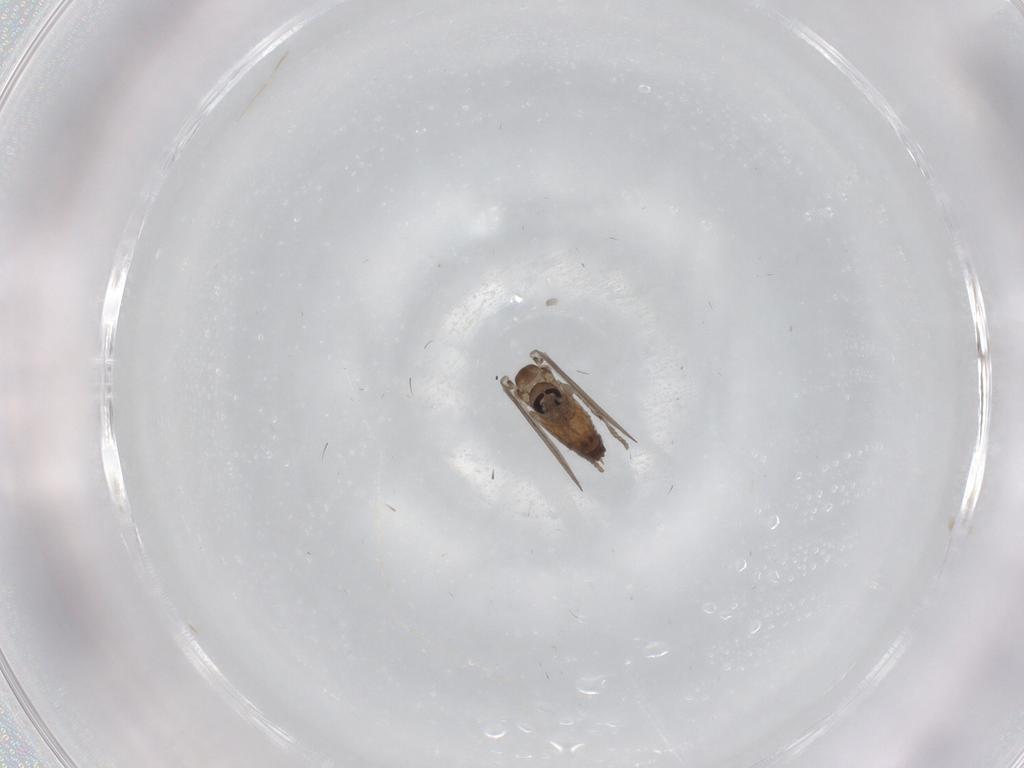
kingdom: Animalia
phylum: Arthropoda
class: Insecta
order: Diptera
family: Psychodidae
